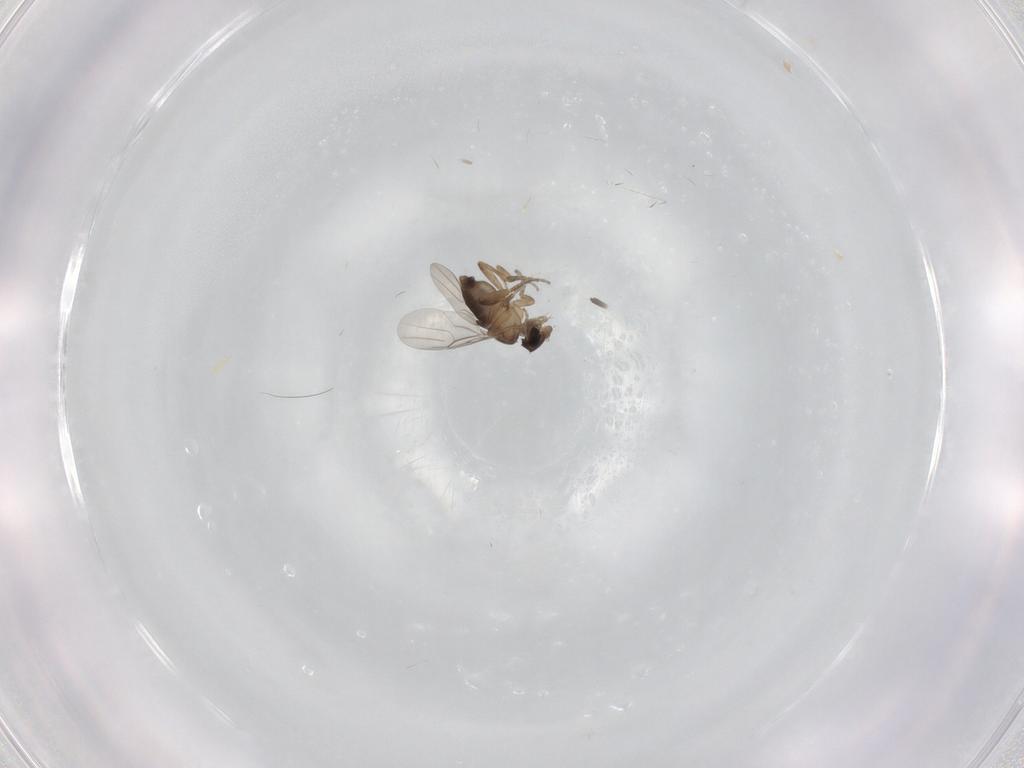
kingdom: Animalia
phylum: Arthropoda
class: Insecta
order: Diptera
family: Phoridae
